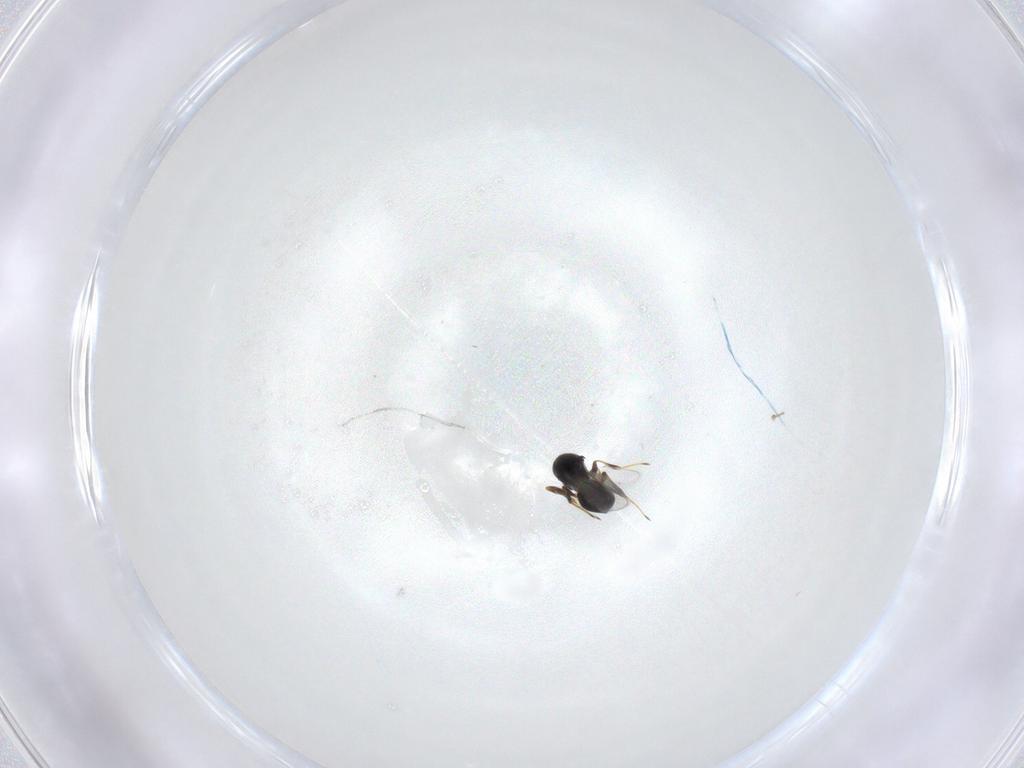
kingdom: Animalia
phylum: Arthropoda
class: Insecta
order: Hymenoptera
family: Platygastridae
